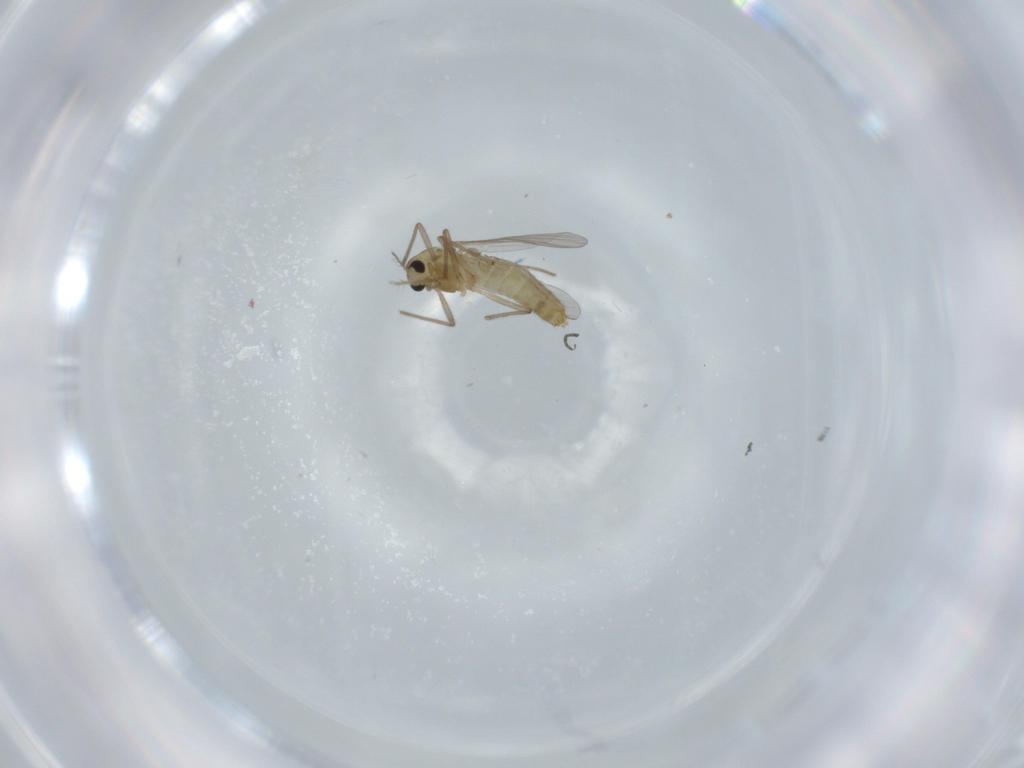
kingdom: Animalia
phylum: Arthropoda
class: Insecta
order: Diptera
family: Chironomidae
